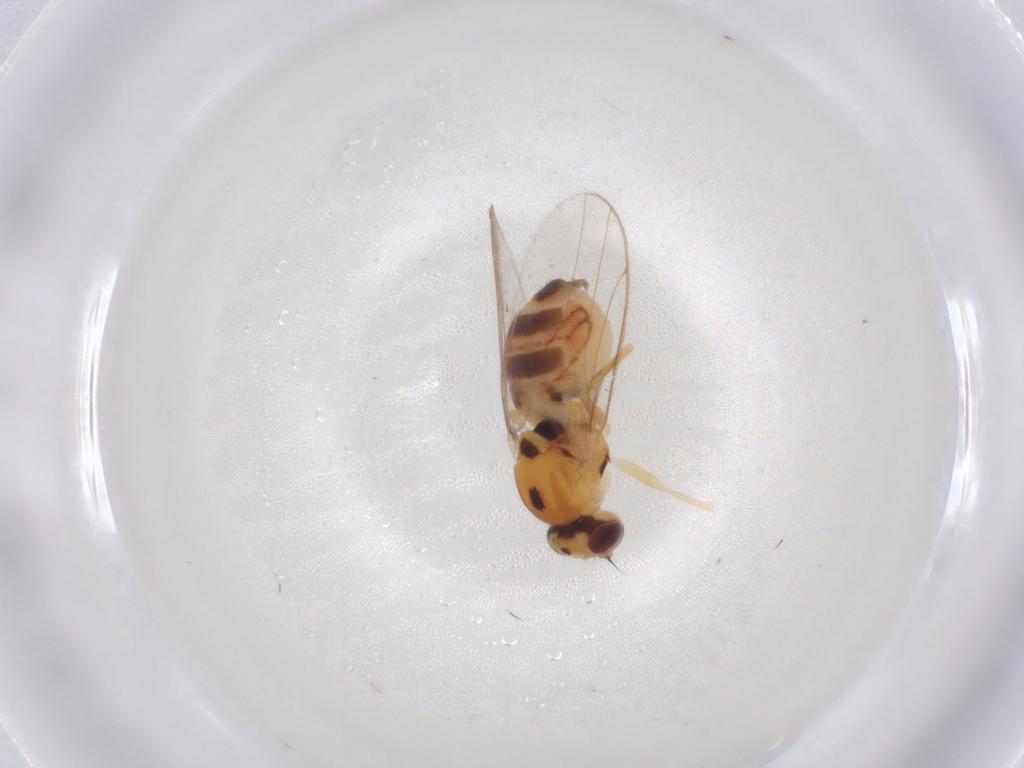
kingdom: Animalia
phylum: Arthropoda
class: Insecta
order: Diptera
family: Chloropidae
